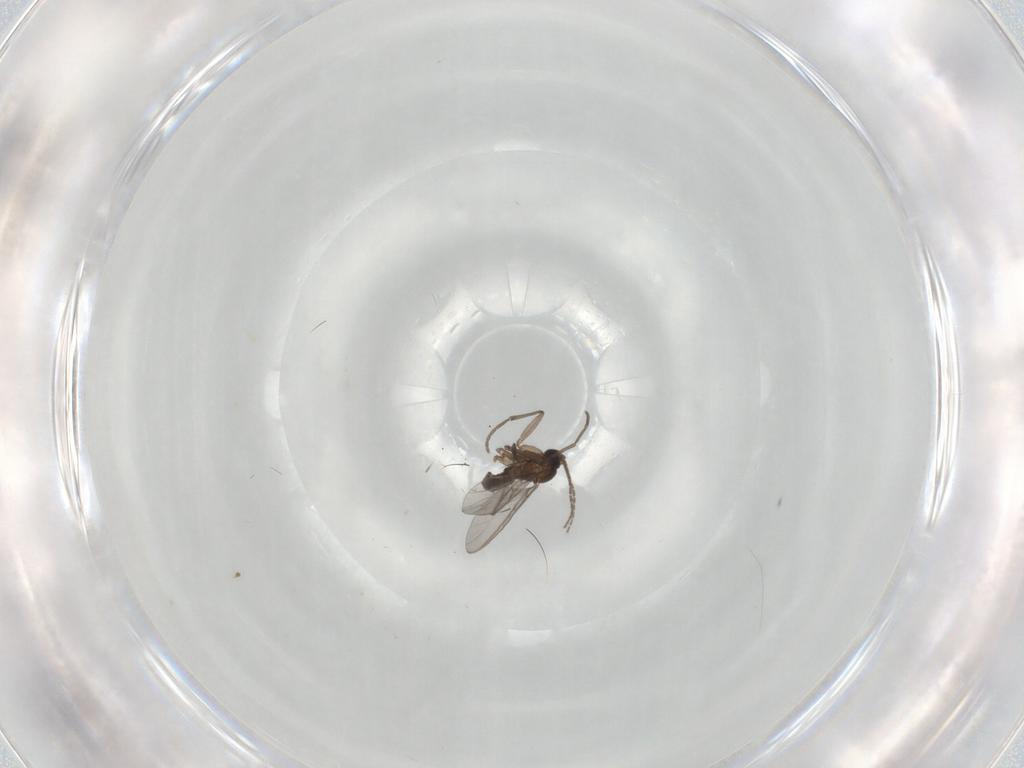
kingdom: Animalia
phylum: Arthropoda
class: Insecta
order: Diptera
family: Sciaridae
